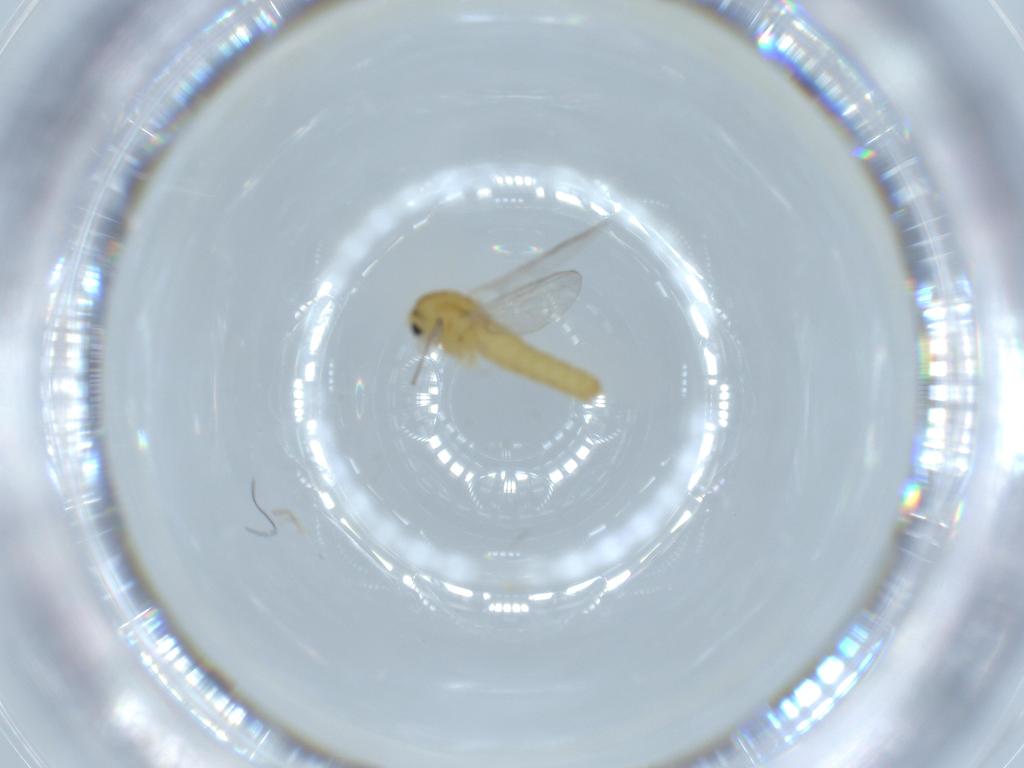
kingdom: Animalia
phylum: Arthropoda
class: Insecta
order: Diptera
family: Chironomidae
